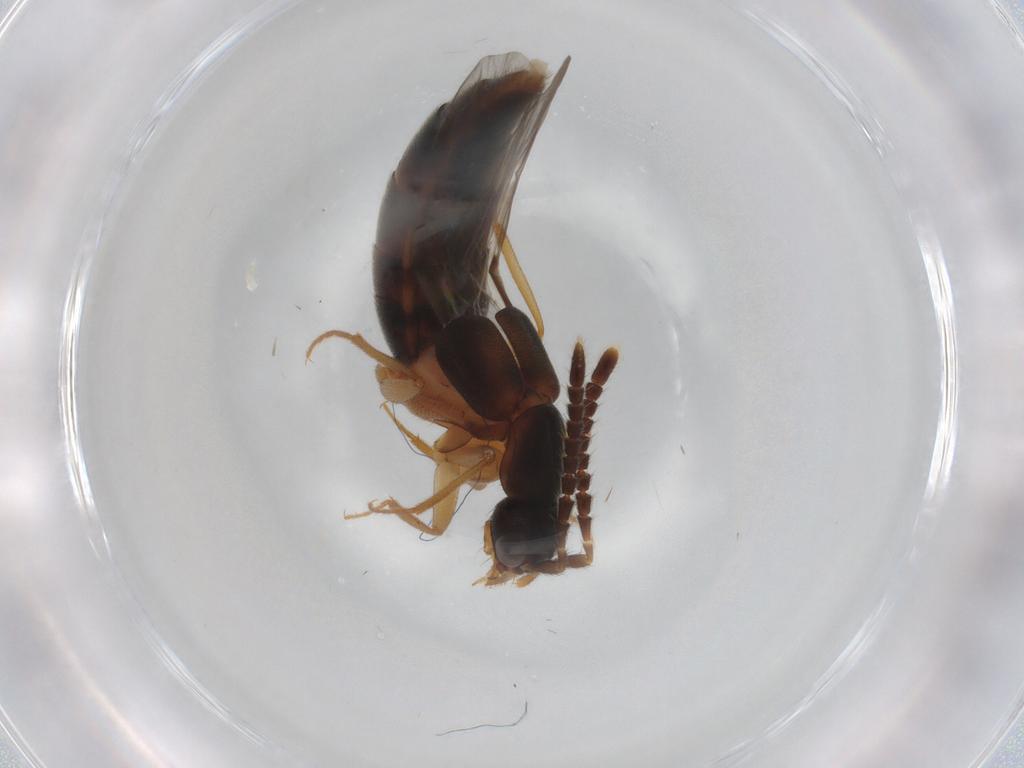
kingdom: Animalia
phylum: Arthropoda
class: Insecta
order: Coleoptera
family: Staphylinidae
